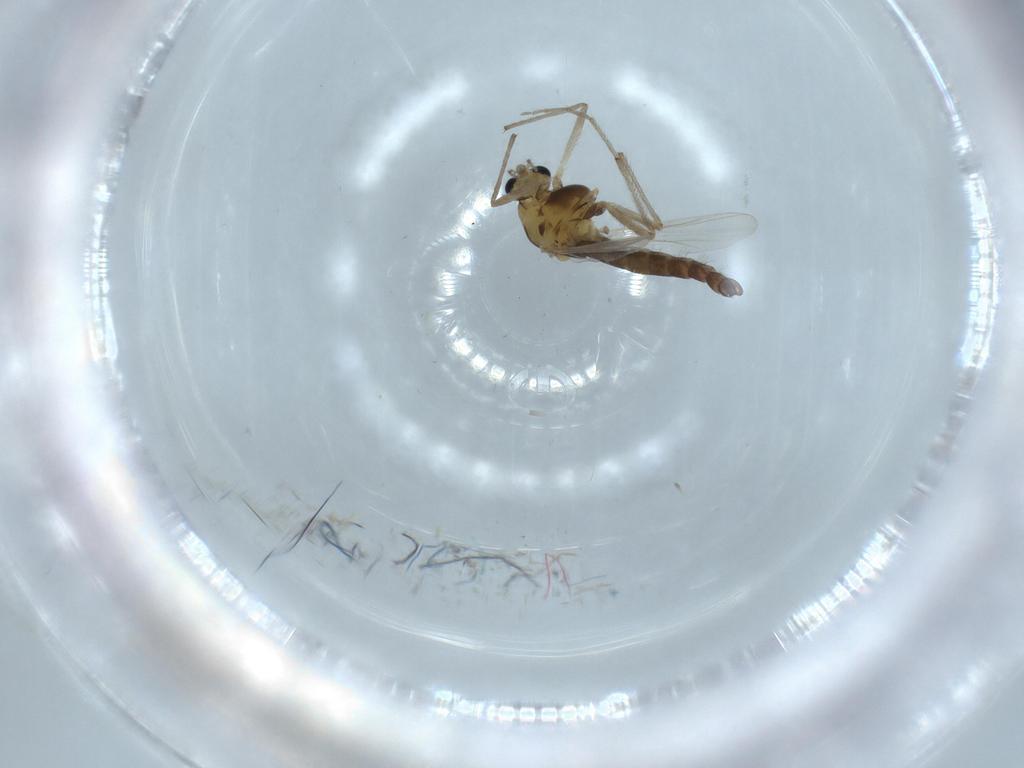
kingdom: Animalia
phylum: Arthropoda
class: Insecta
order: Diptera
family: Chironomidae
